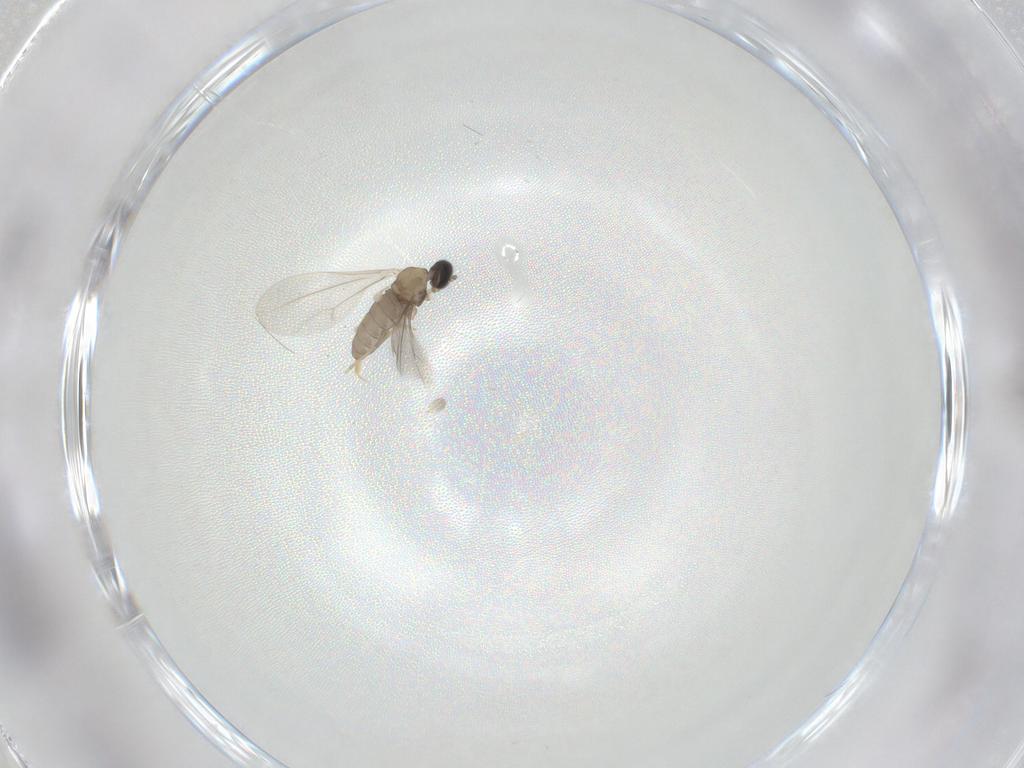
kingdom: Animalia
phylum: Arthropoda
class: Insecta
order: Diptera
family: Cecidomyiidae
